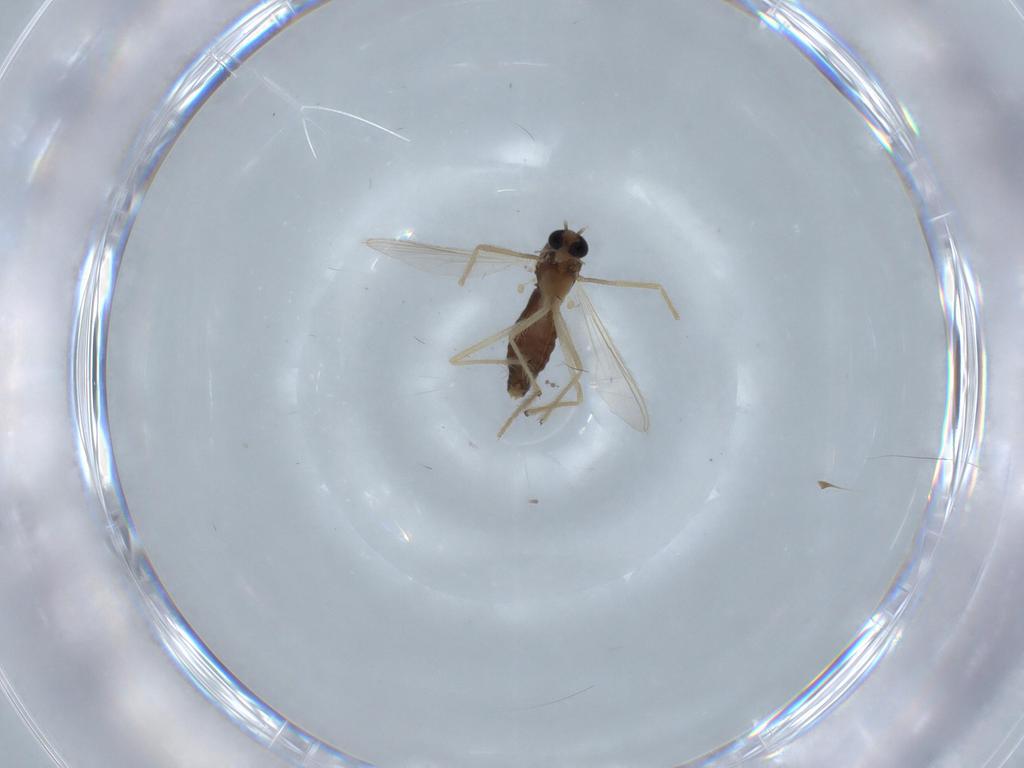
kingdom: Animalia
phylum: Arthropoda
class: Insecta
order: Diptera
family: Chironomidae
